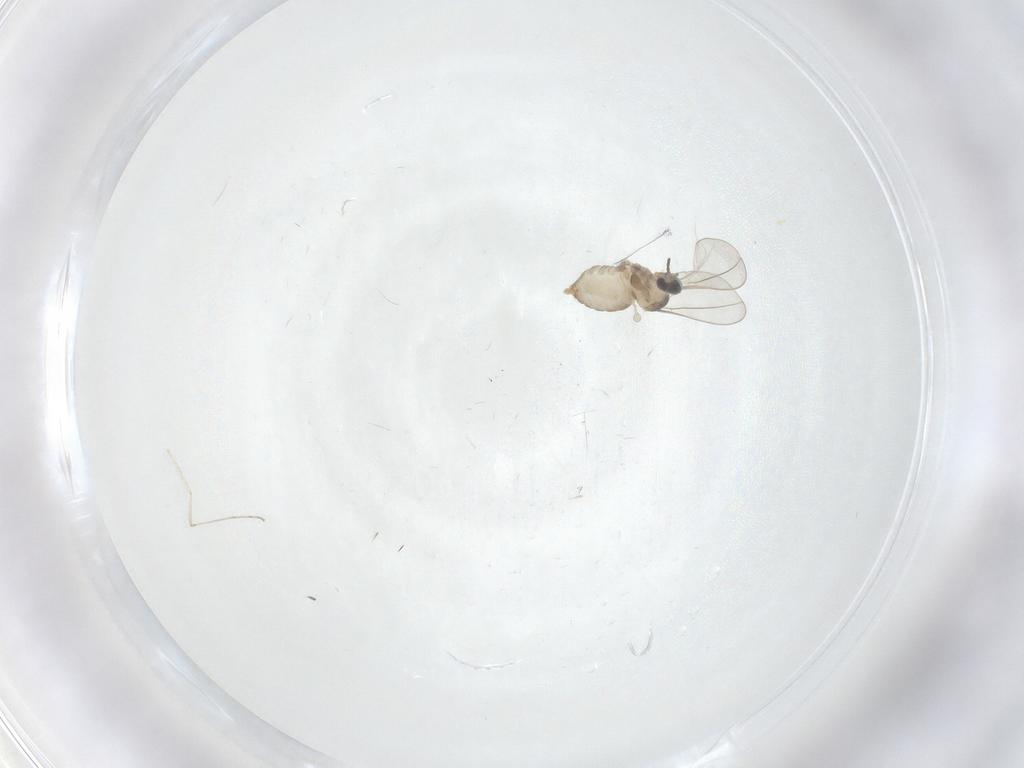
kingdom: Animalia
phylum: Arthropoda
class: Insecta
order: Diptera
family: Cecidomyiidae
